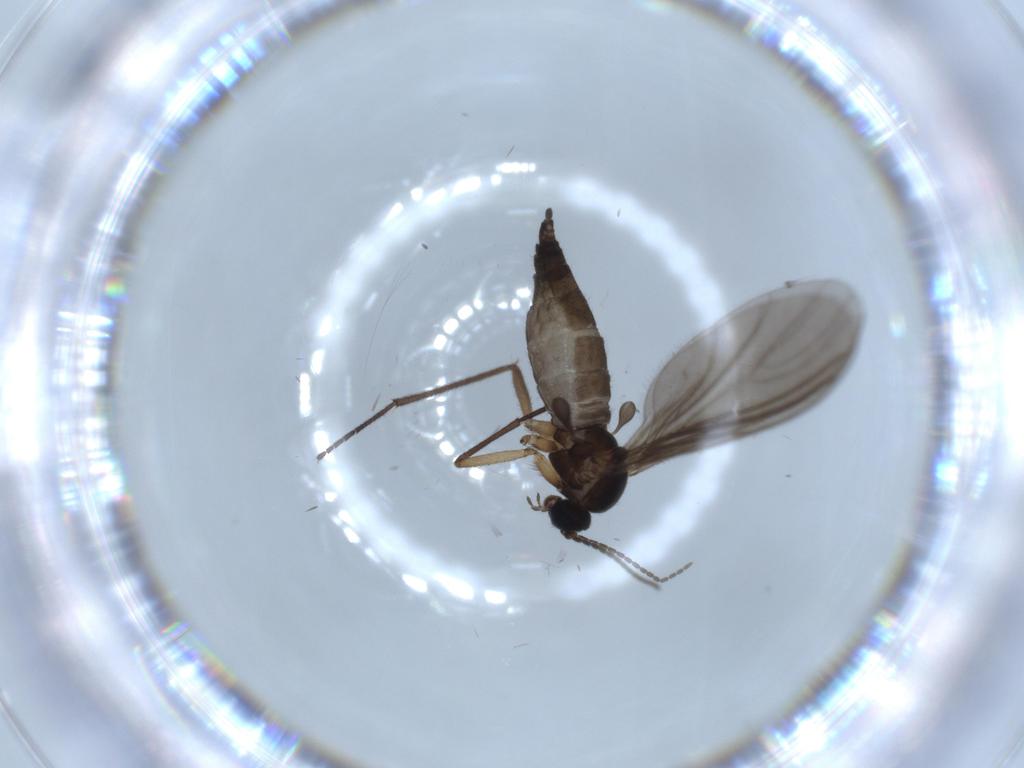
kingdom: Animalia
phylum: Arthropoda
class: Insecta
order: Diptera
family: Sciaridae
